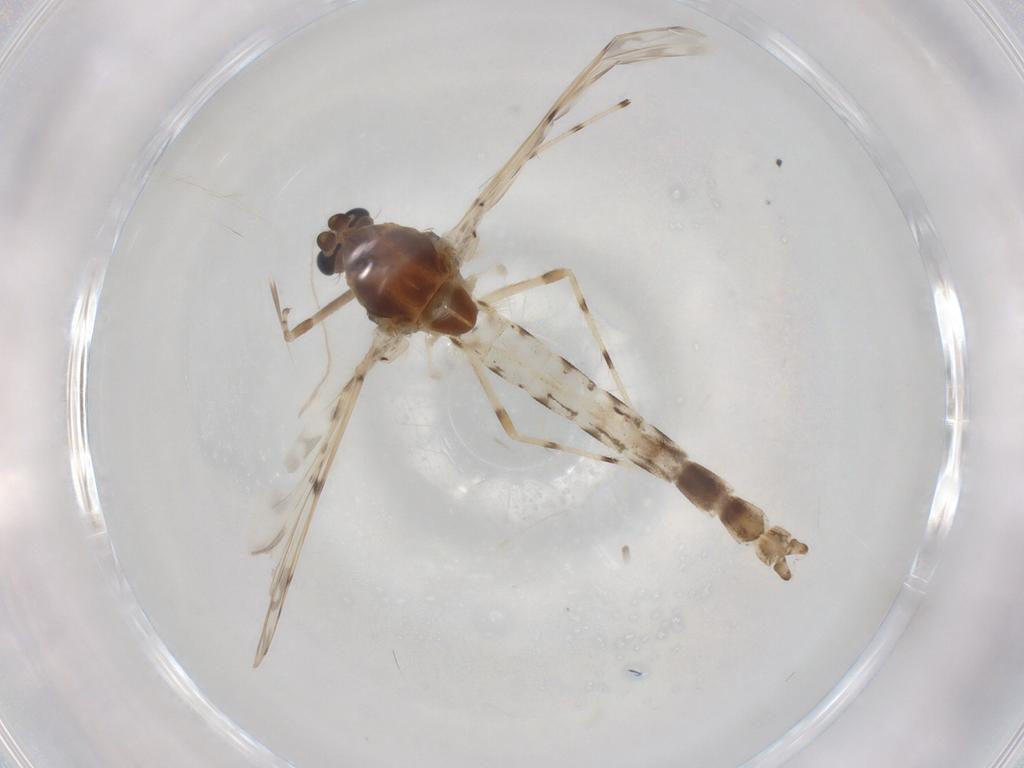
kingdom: Animalia
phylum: Arthropoda
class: Insecta
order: Diptera
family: Chironomidae
